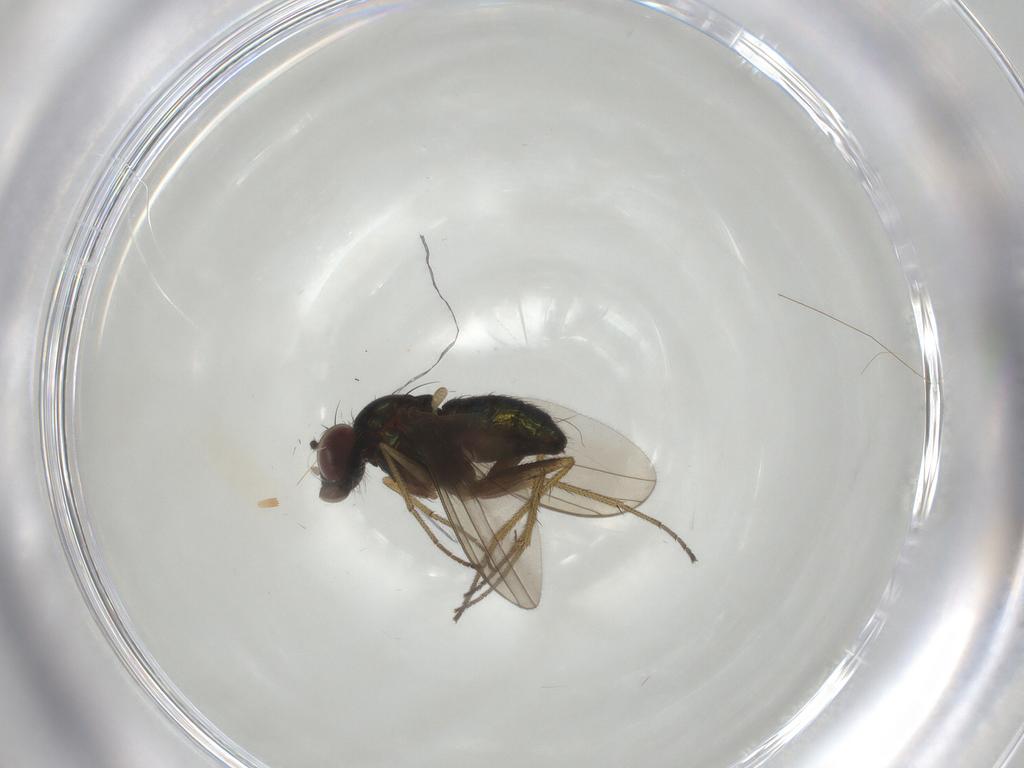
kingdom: Animalia
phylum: Arthropoda
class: Insecta
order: Diptera
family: Dolichopodidae
